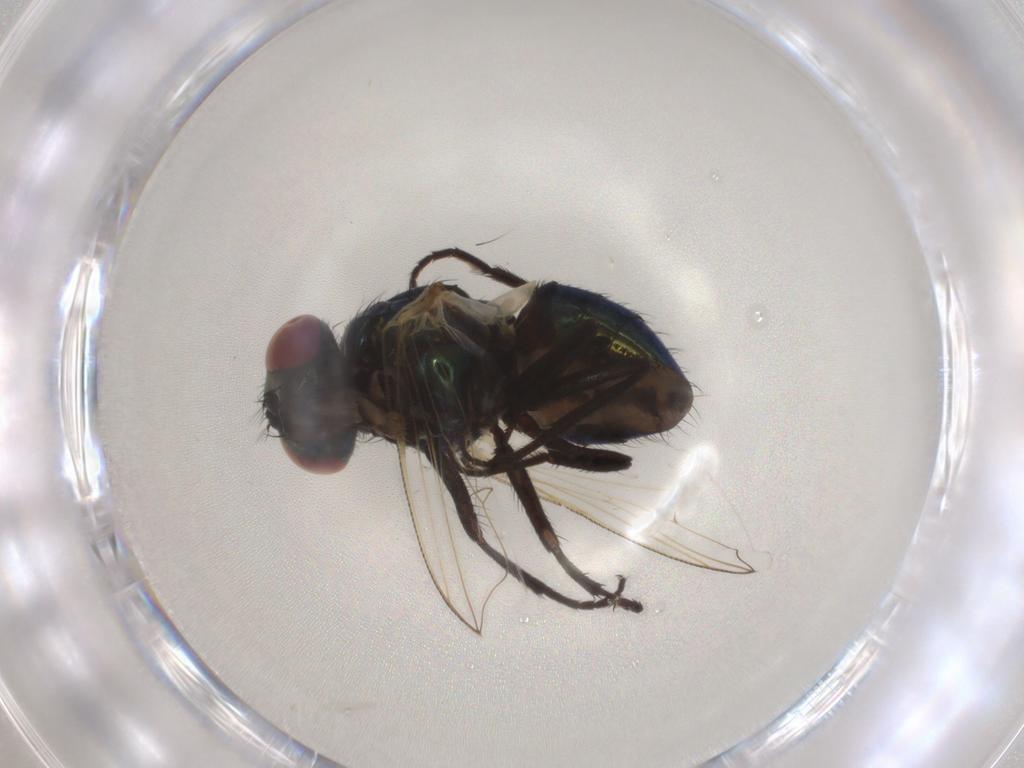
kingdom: Animalia
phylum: Arthropoda
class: Insecta
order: Diptera
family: Muscidae
